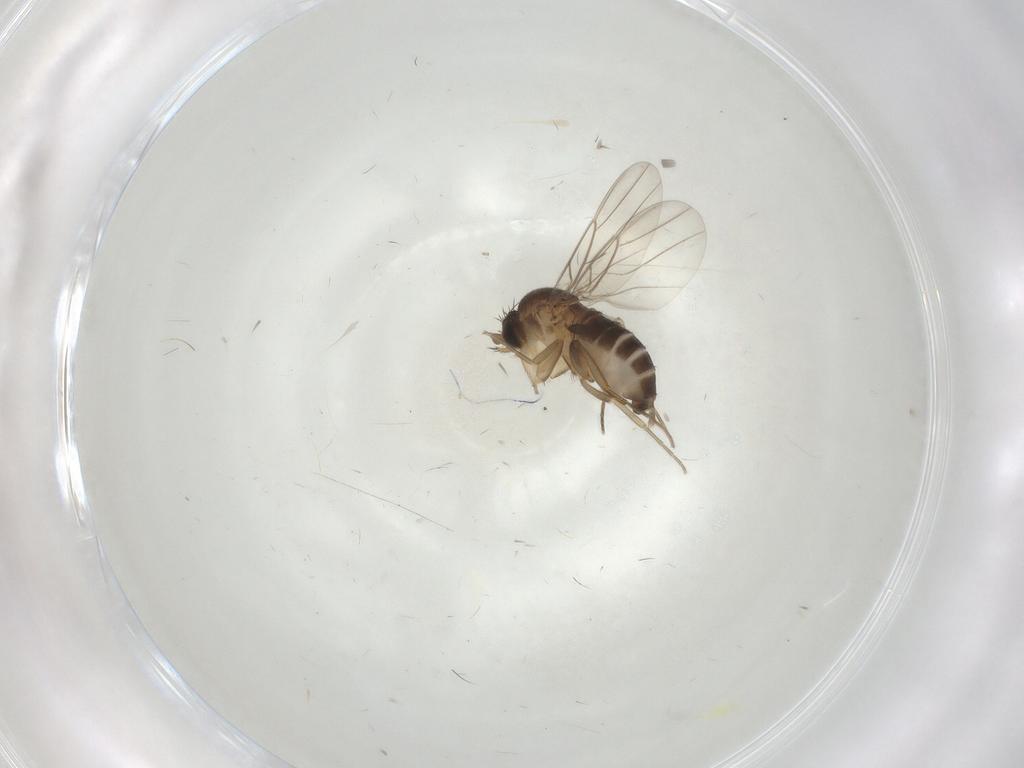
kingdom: Animalia
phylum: Arthropoda
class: Insecta
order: Diptera
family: Phoridae
